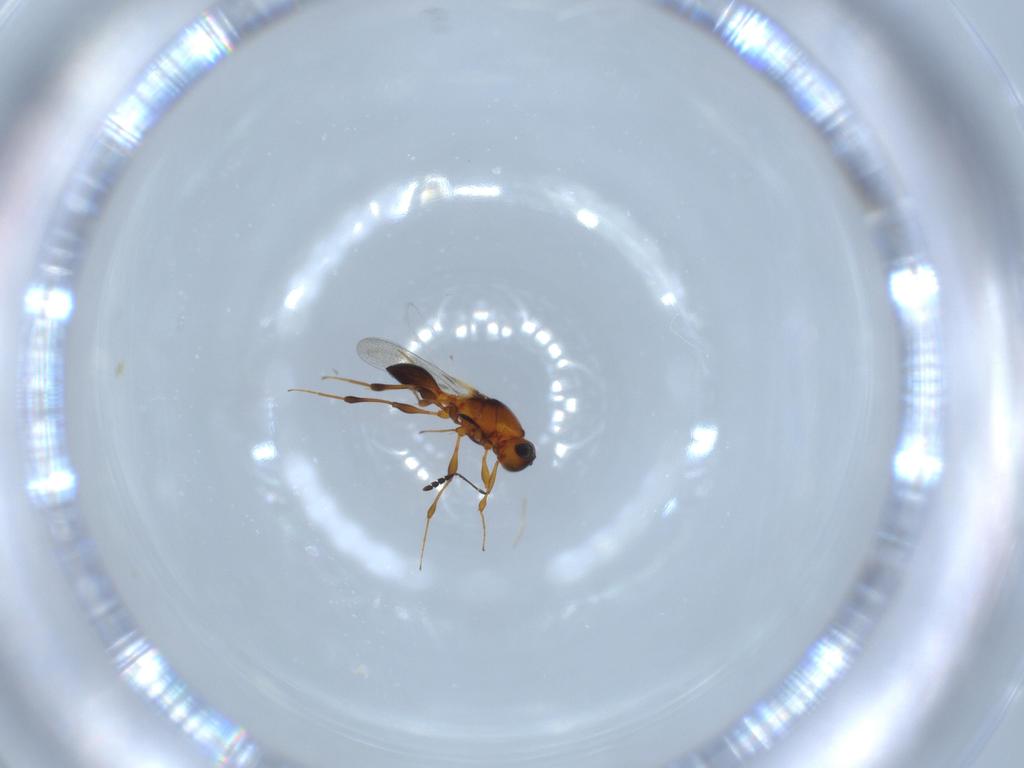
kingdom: Animalia
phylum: Arthropoda
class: Insecta
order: Hymenoptera
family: Platygastridae
